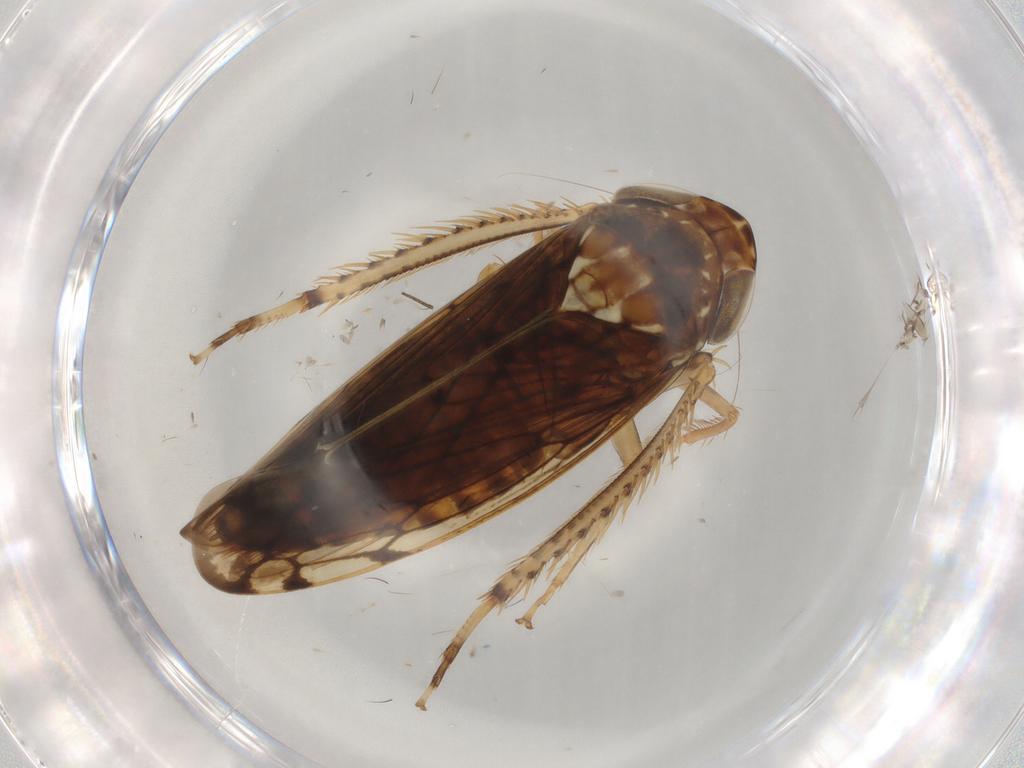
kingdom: Animalia
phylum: Arthropoda
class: Insecta
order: Hemiptera
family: Cicadellidae
